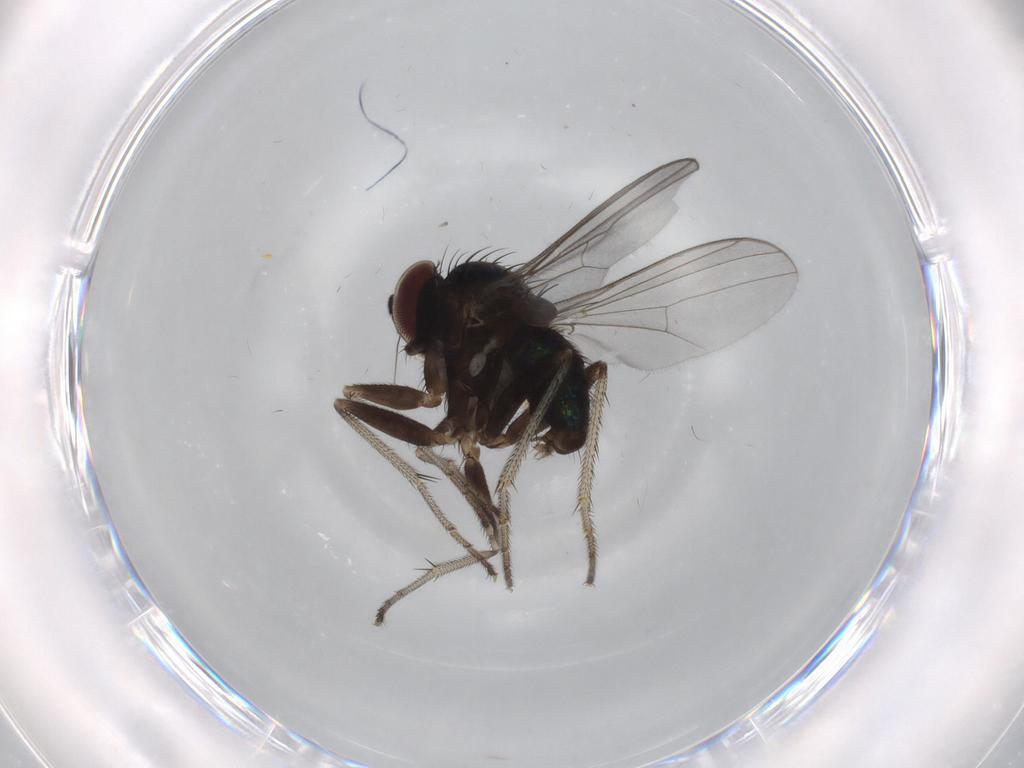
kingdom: Animalia
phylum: Arthropoda
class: Insecta
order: Diptera
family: Dolichopodidae
